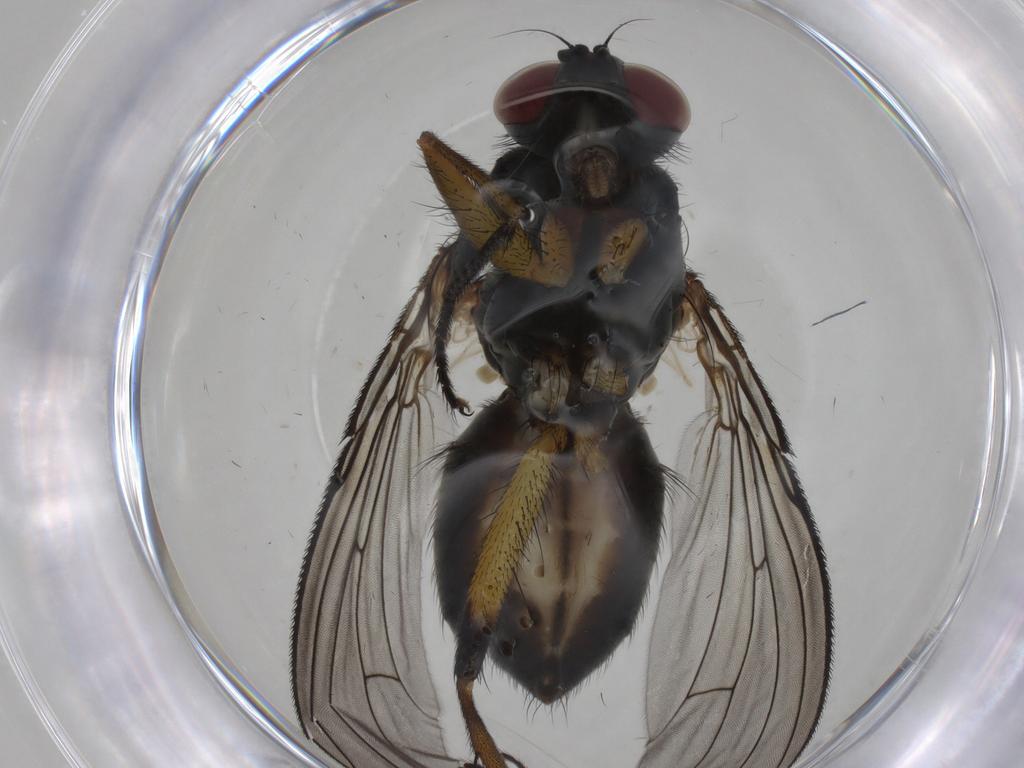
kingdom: Animalia
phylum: Arthropoda
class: Insecta
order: Diptera
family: Muscidae
